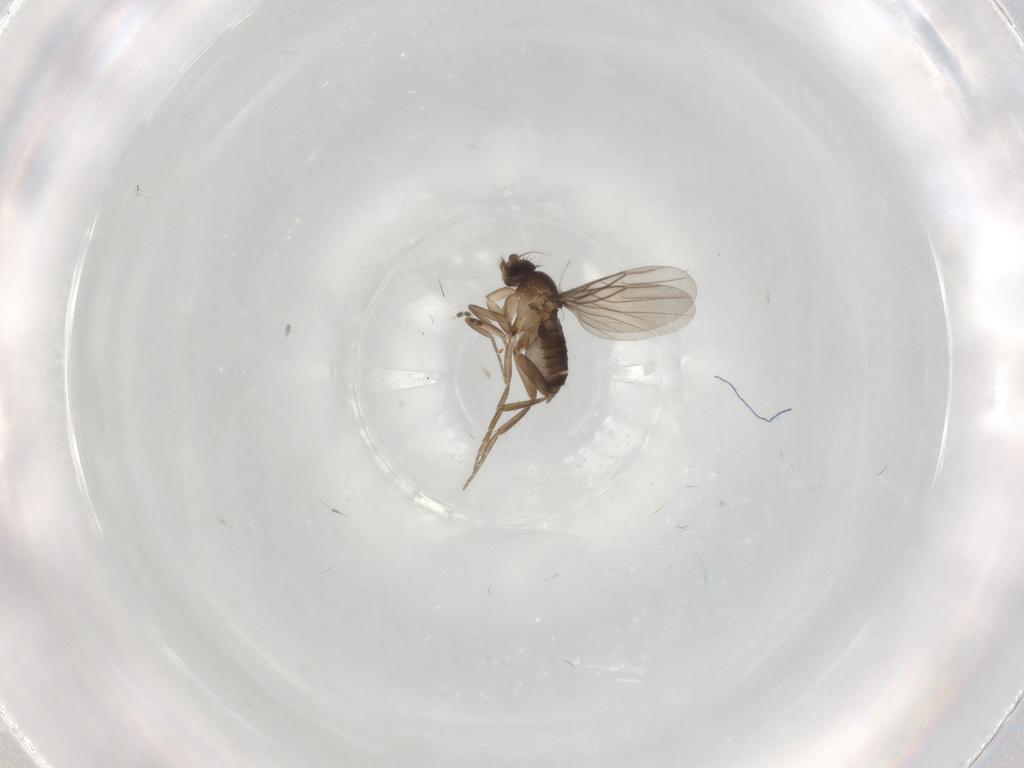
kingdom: Animalia
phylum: Arthropoda
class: Insecta
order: Diptera
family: Sciaridae
